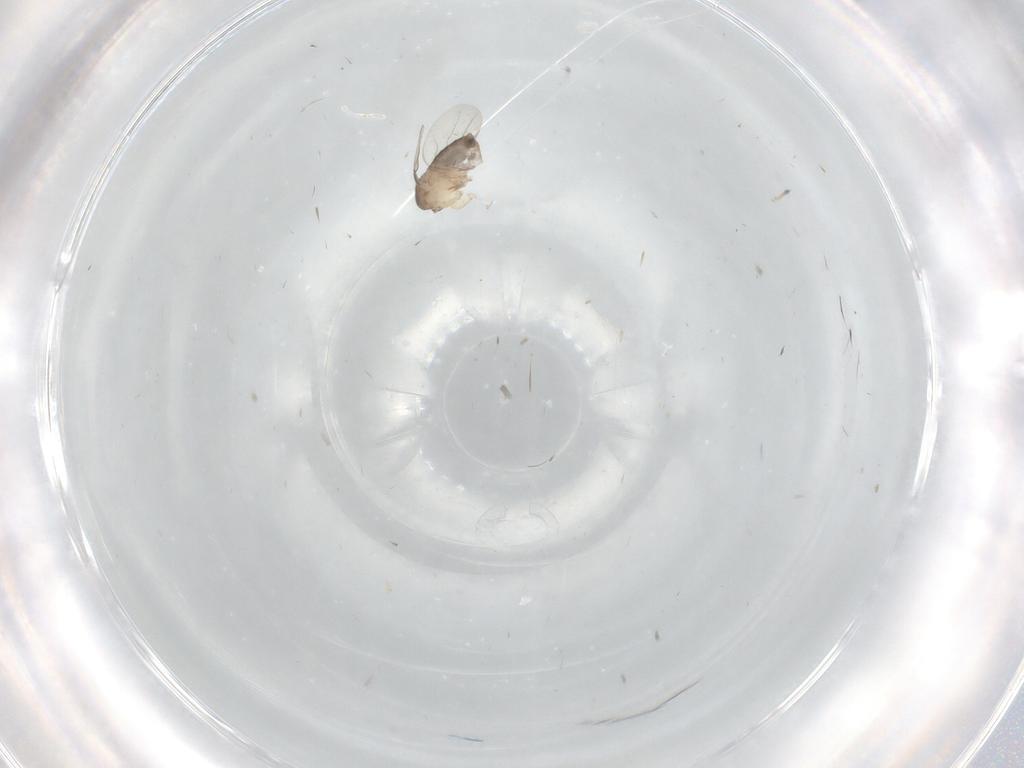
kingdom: Animalia
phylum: Arthropoda
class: Insecta
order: Diptera
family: Phoridae
